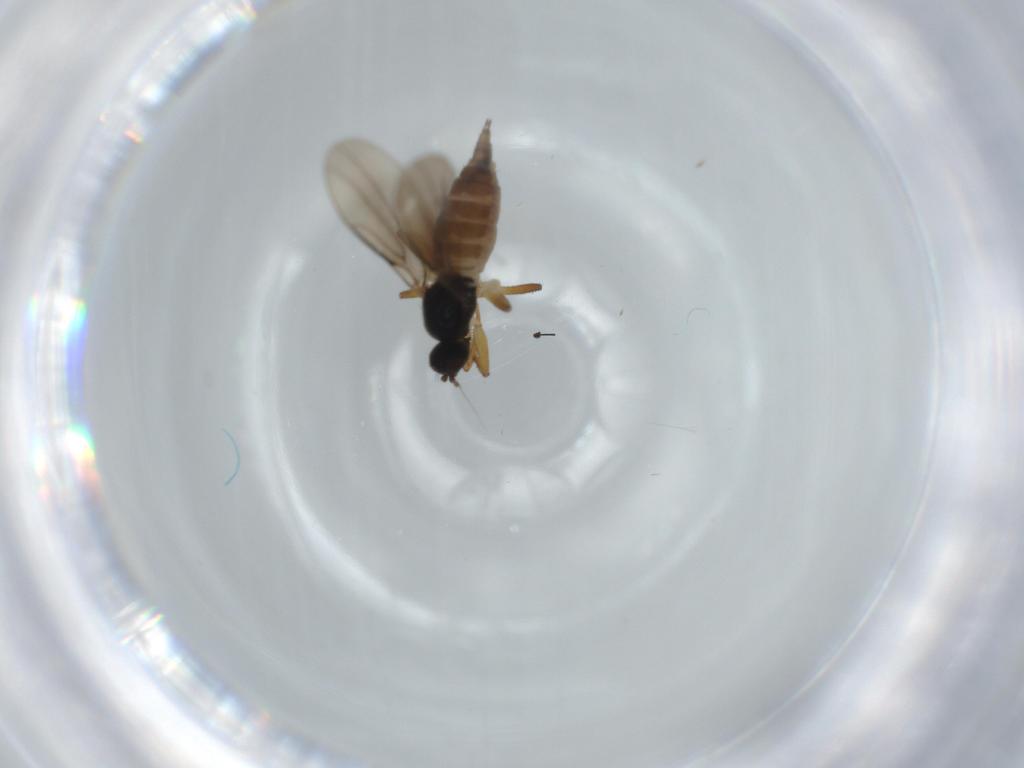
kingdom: Animalia
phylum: Arthropoda
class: Insecta
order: Diptera
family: Hybotidae
